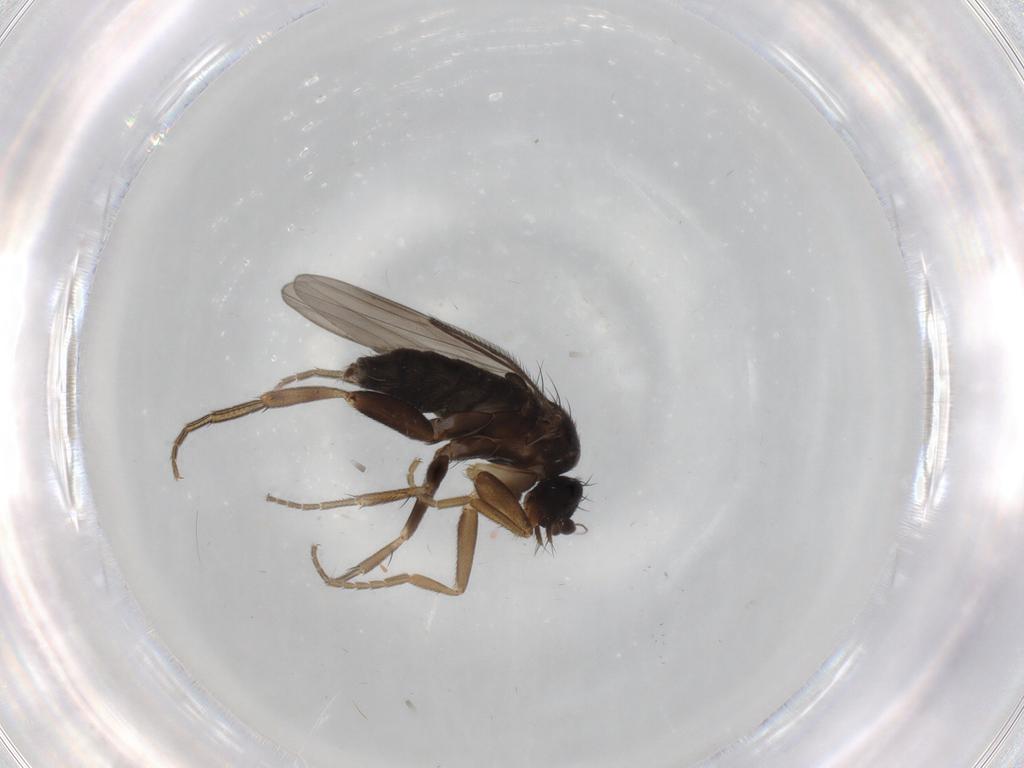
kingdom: Animalia
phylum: Arthropoda
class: Insecta
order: Diptera
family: Phoridae
